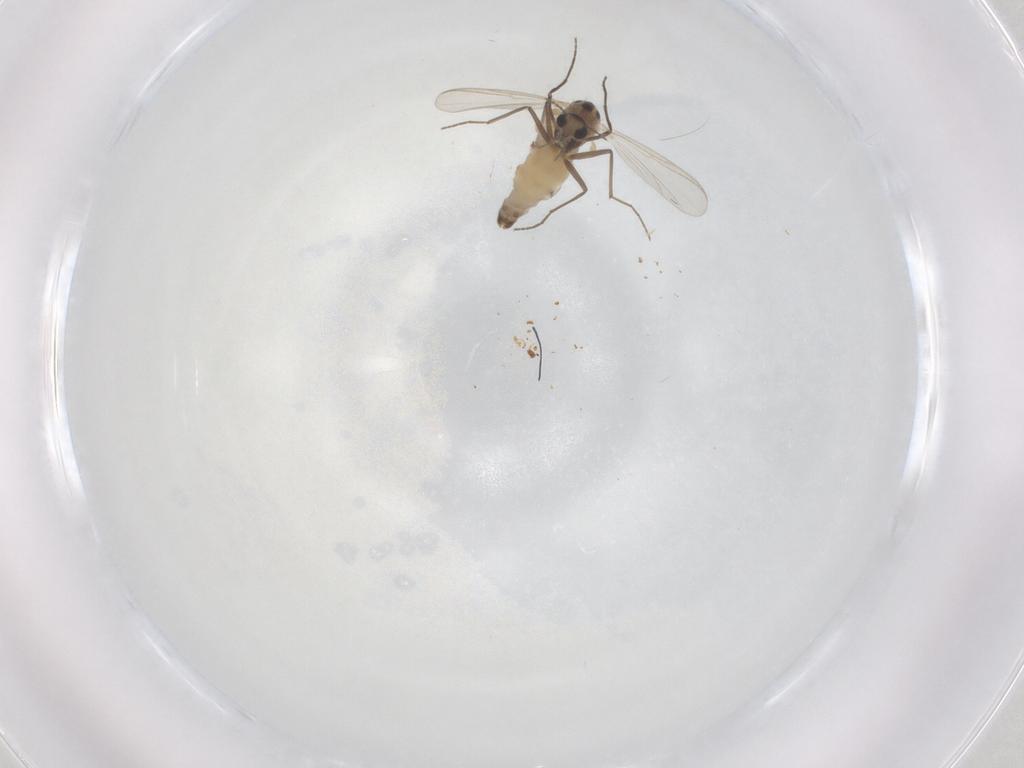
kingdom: Animalia
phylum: Arthropoda
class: Insecta
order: Diptera
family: Chironomidae
